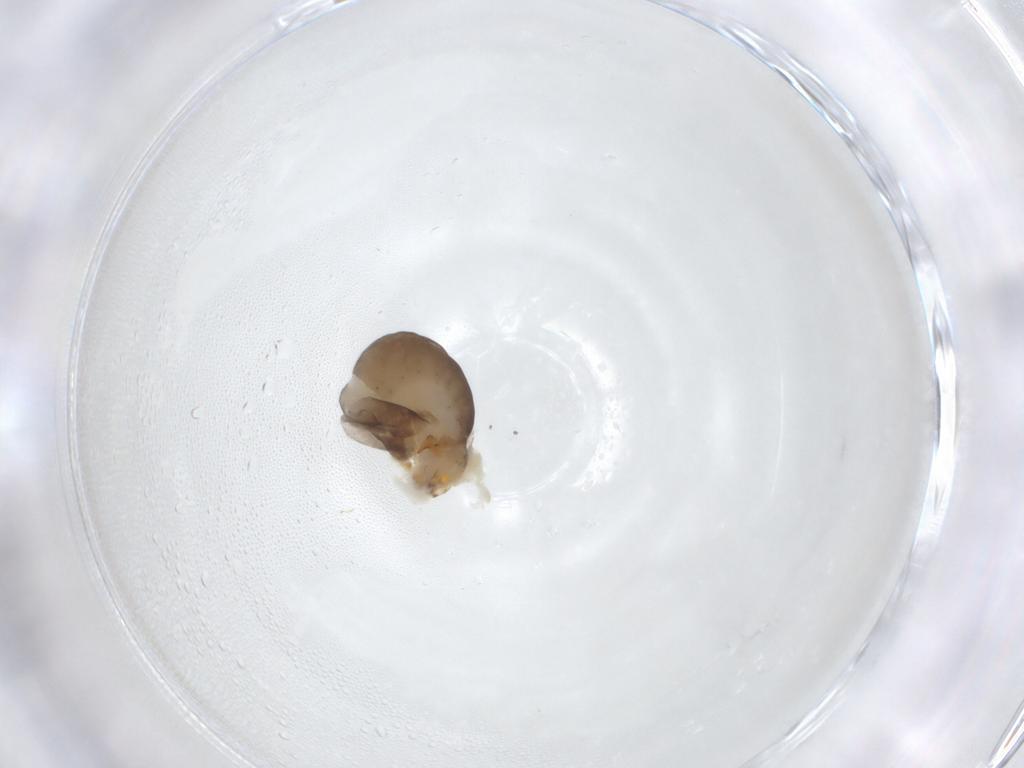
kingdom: Animalia
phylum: Arthropoda
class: Insecta
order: Hymenoptera
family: Dryinidae
